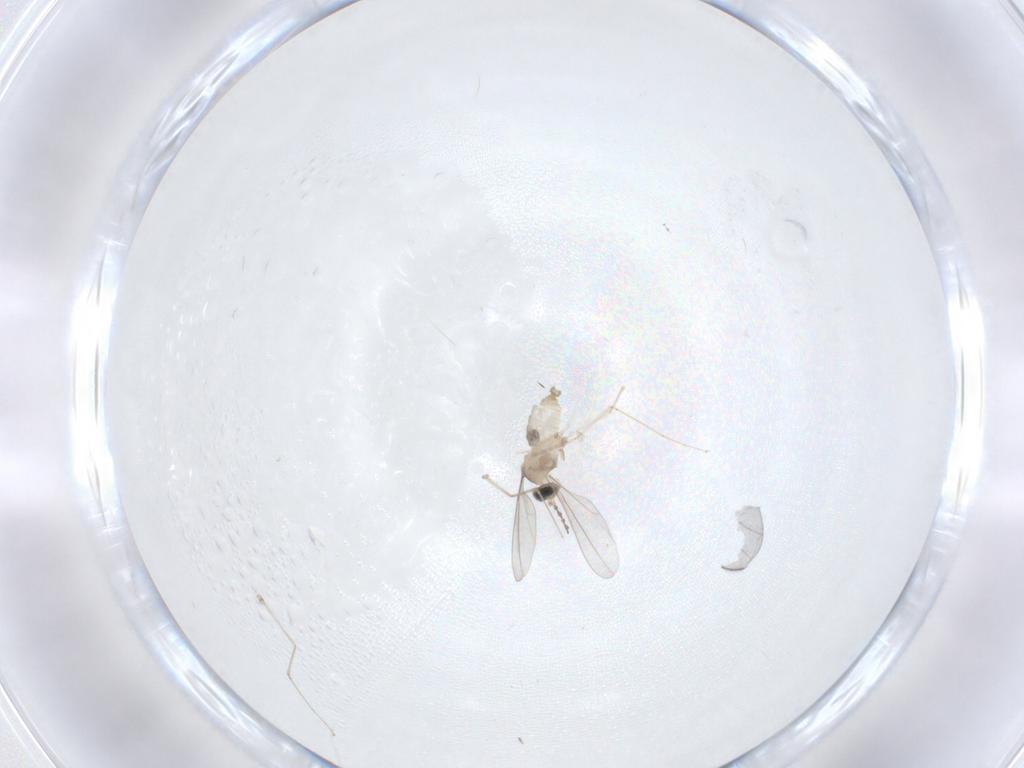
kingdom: Animalia
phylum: Arthropoda
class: Insecta
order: Diptera
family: Cecidomyiidae
